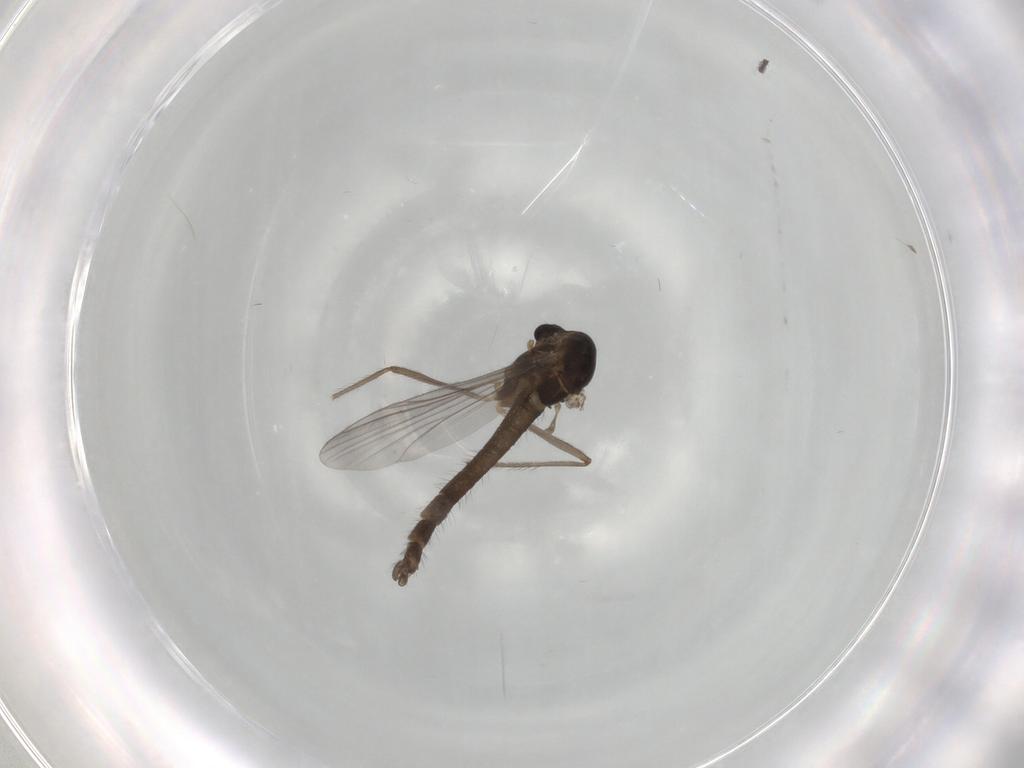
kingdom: Animalia
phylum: Arthropoda
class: Insecta
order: Diptera
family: Chironomidae
